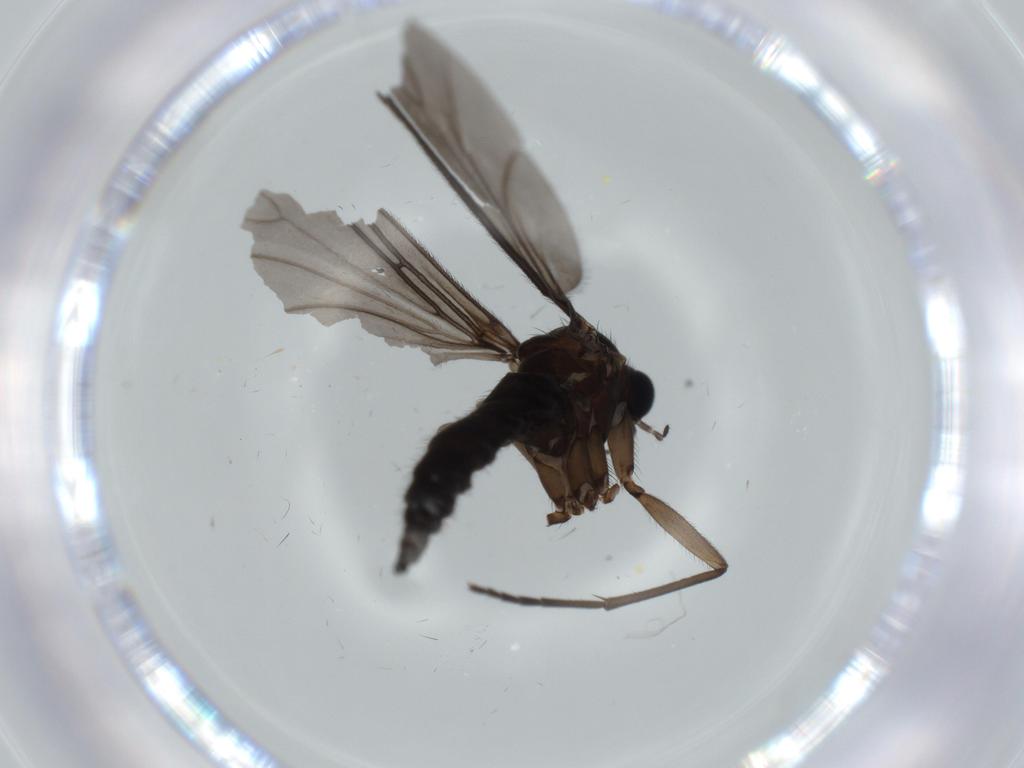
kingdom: Animalia
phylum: Arthropoda
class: Insecta
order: Diptera
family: Sciaridae
